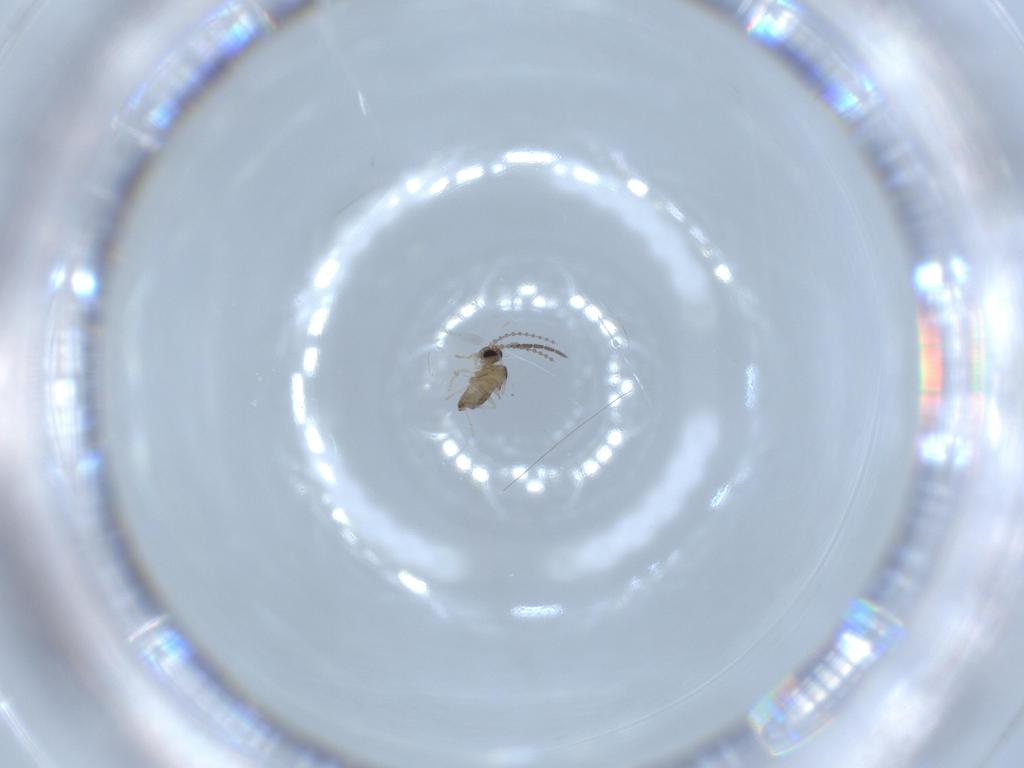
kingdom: Animalia
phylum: Arthropoda
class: Insecta
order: Diptera
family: Cecidomyiidae
